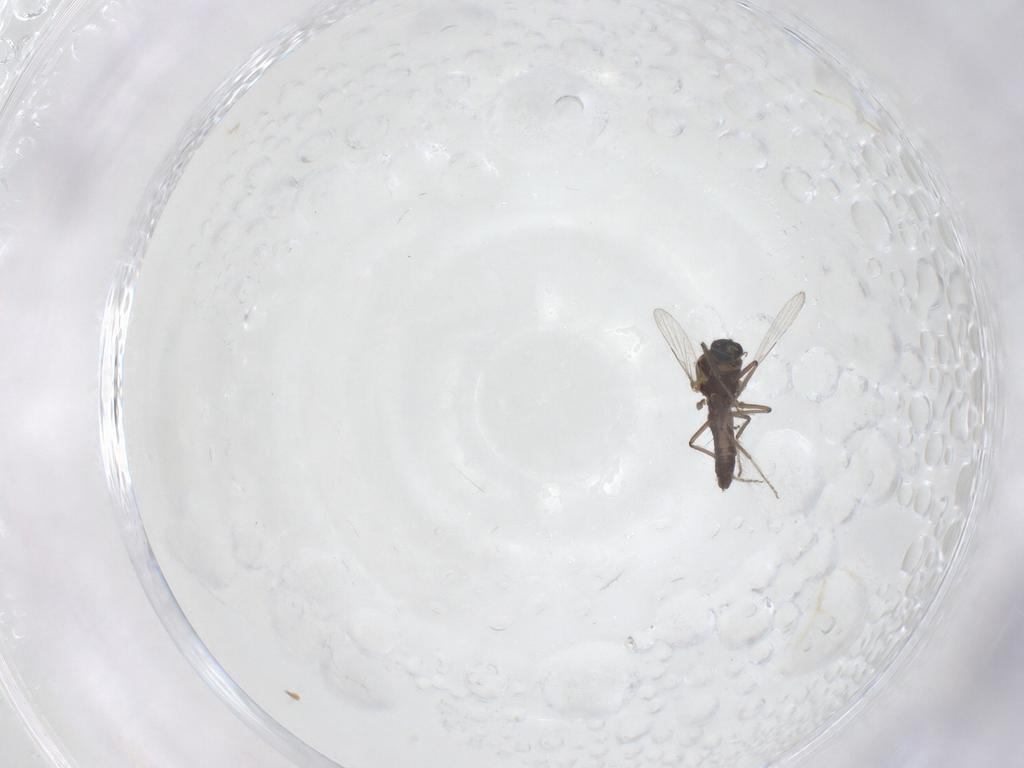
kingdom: Animalia
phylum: Arthropoda
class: Insecta
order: Diptera
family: Ceratopogonidae
